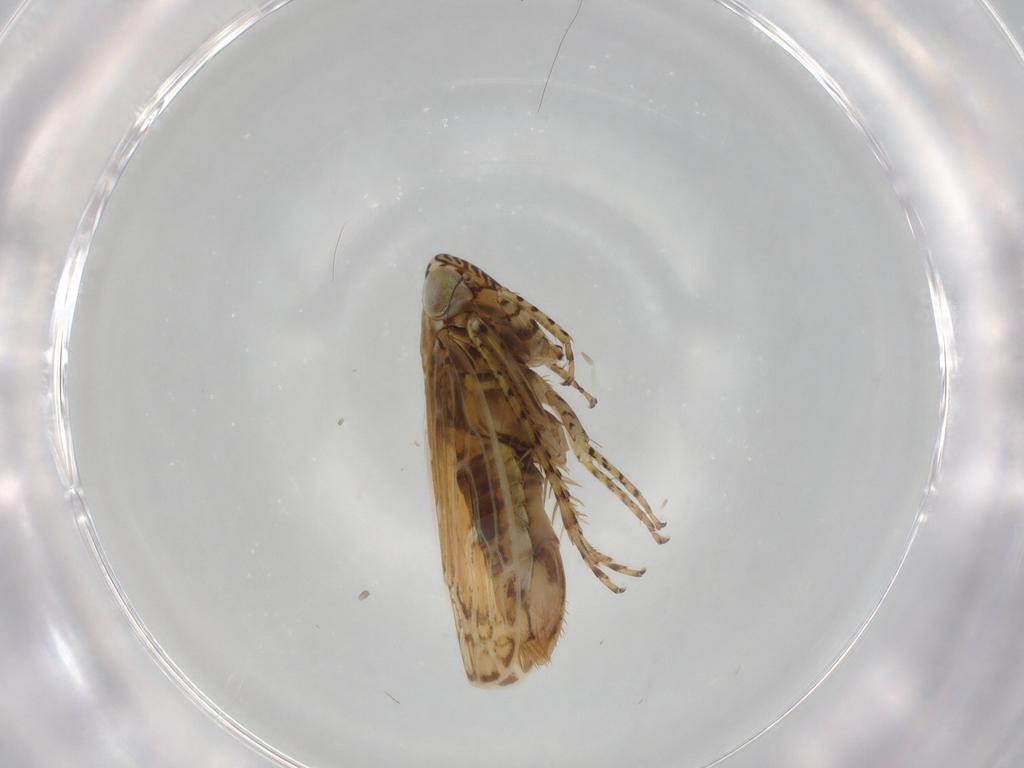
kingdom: Animalia
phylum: Arthropoda
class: Insecta
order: Hemiptera
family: Cicadellidae
